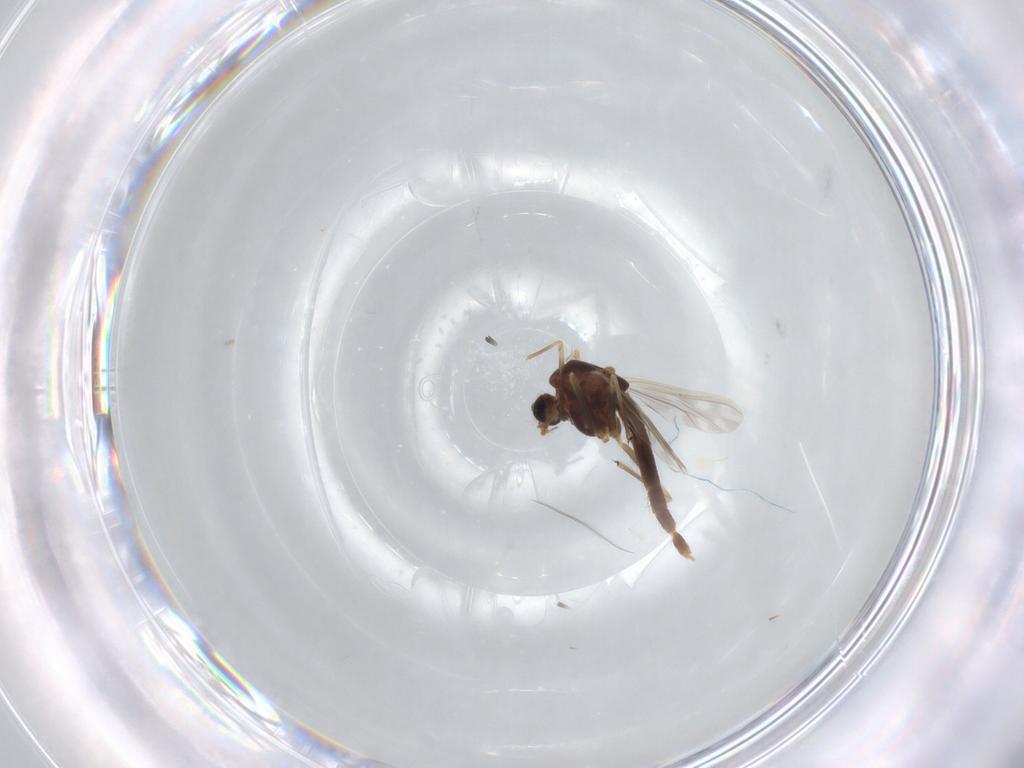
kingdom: Animalia
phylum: Arthropoda
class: Insecta
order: Diptera
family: Chironomidae
